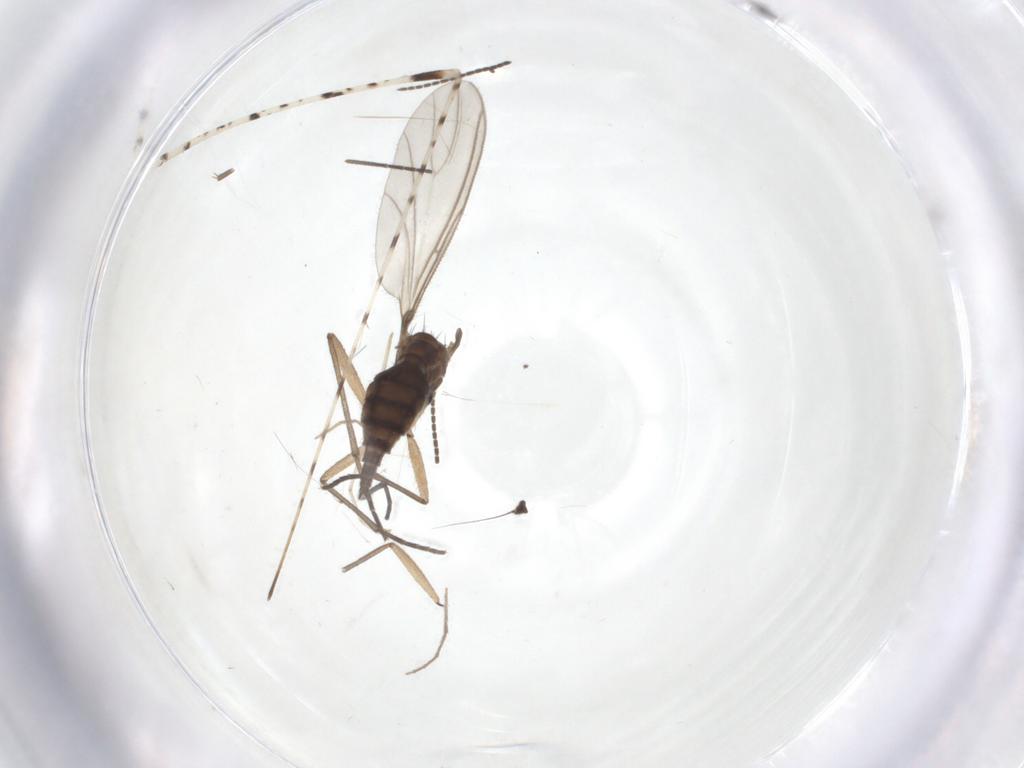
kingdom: Animalia
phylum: Arthropoda
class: Insecta
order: Diptera
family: Sciaridae
